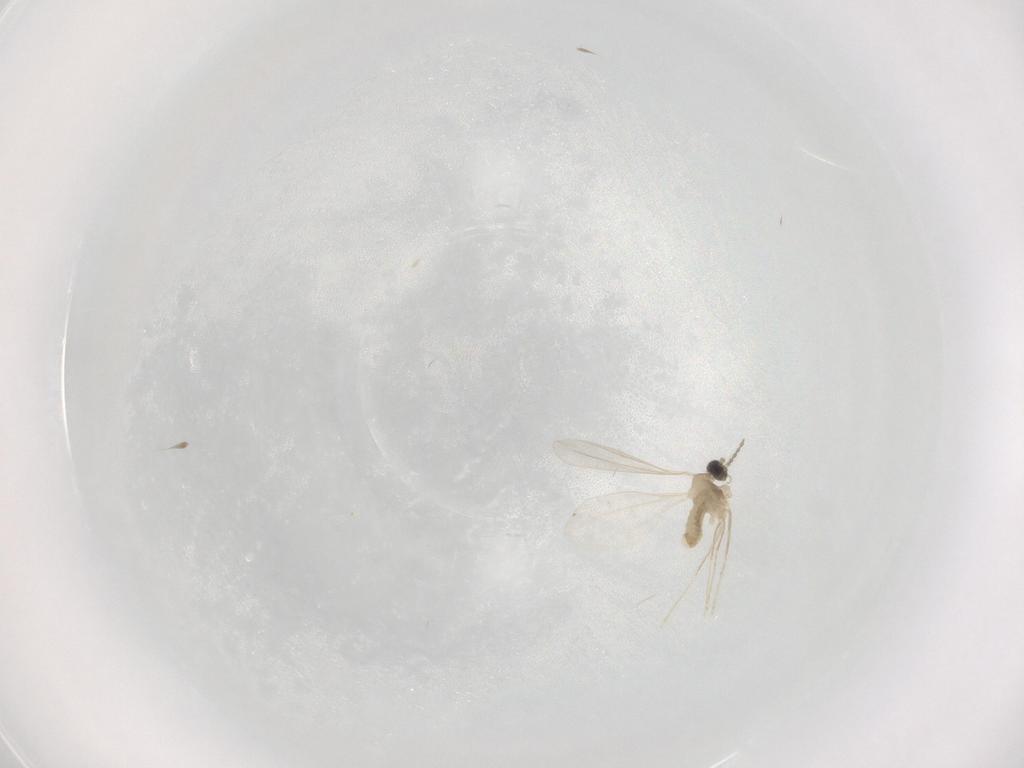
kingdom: Animalia
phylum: Arthropoda
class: Insecta
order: Diptera
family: Cecidomyiidae
